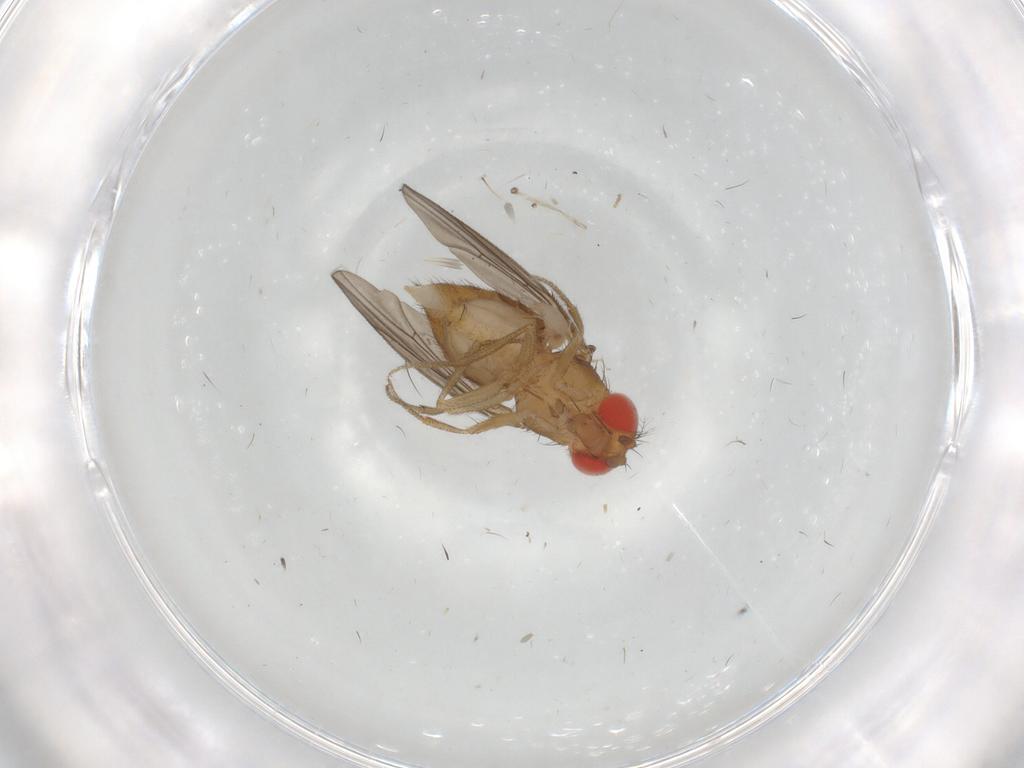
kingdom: Animalia
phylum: Arthropoda
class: Insecta
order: Diptera
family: Drosophilidae
